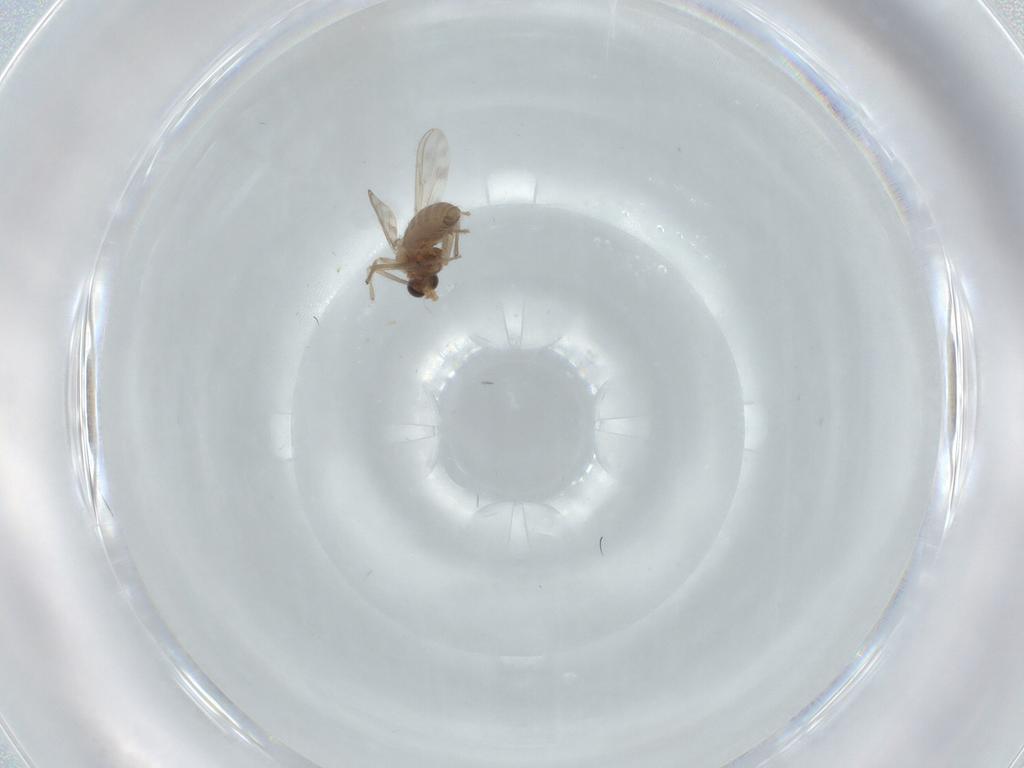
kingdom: Animalia
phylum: Arthropoda
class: Insecta
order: Diptera
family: Chironomidae
